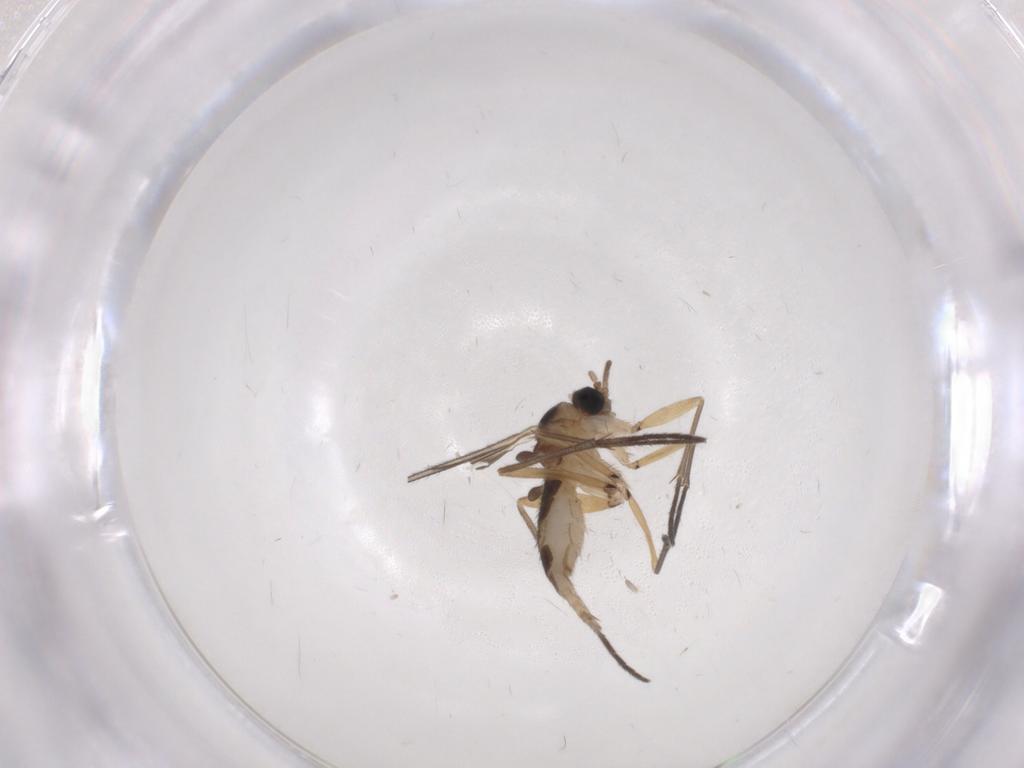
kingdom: Animalia
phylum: Arthropoda
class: Insecta
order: Diptera
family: Sciaridae
